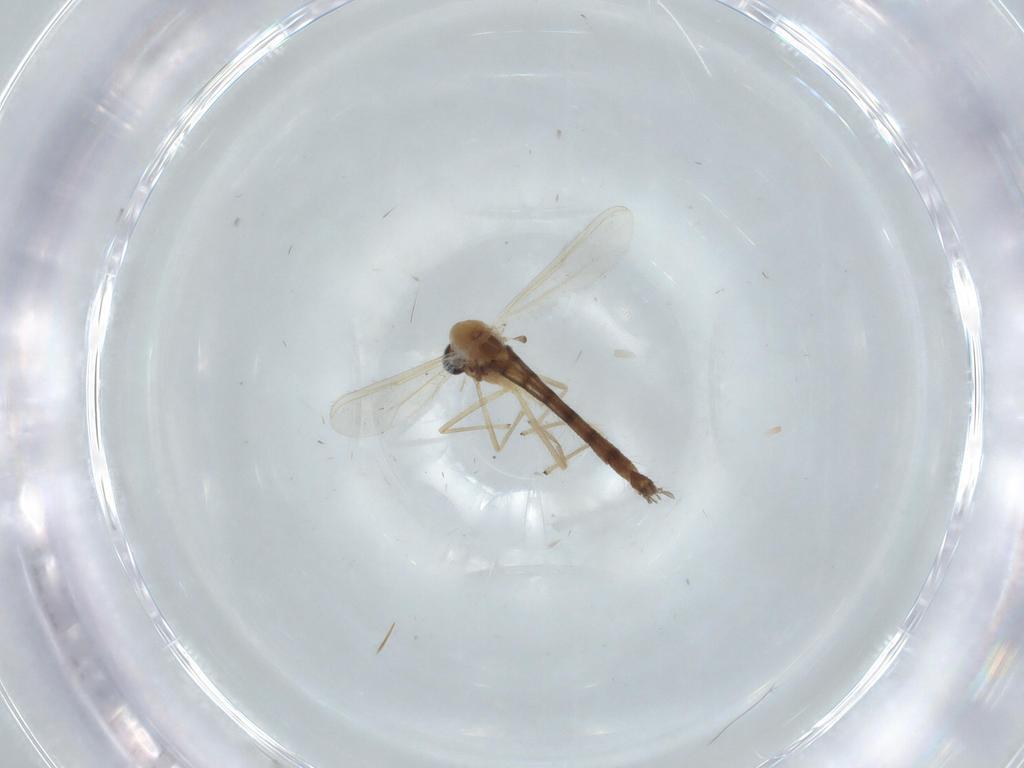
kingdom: Animalia
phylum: Arthropoda
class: Insecta
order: Diptera
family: Chironomidae
